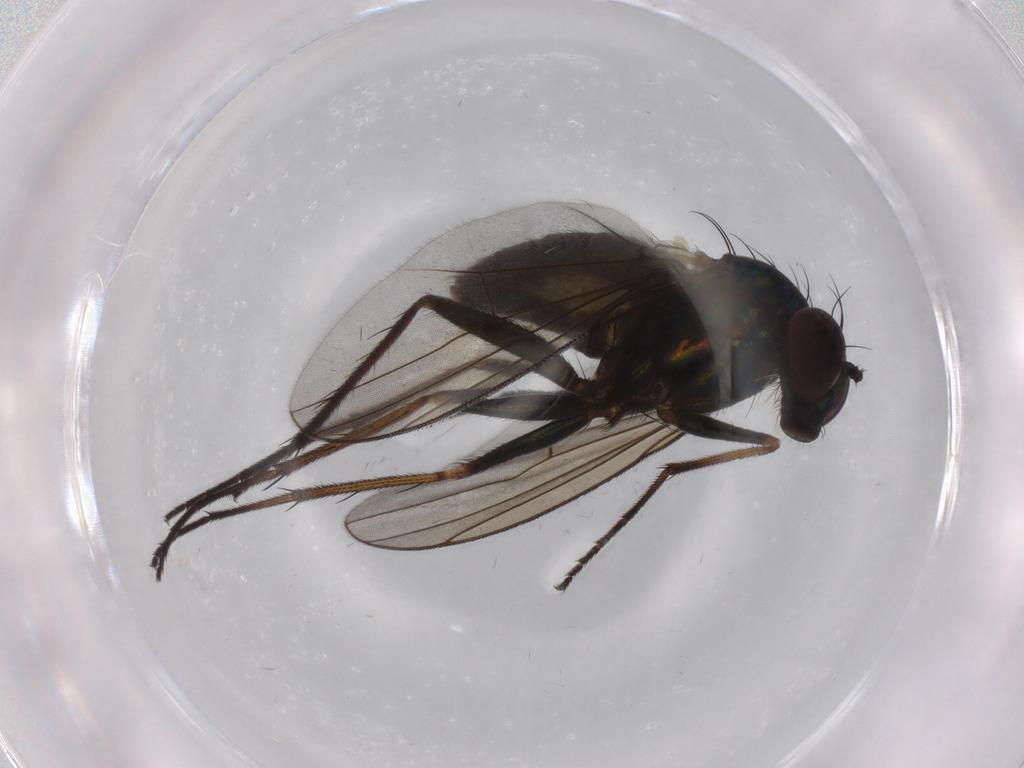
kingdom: Animalia
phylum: Arthropoda
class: Insecta
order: Diptera
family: Dolichopodidae
